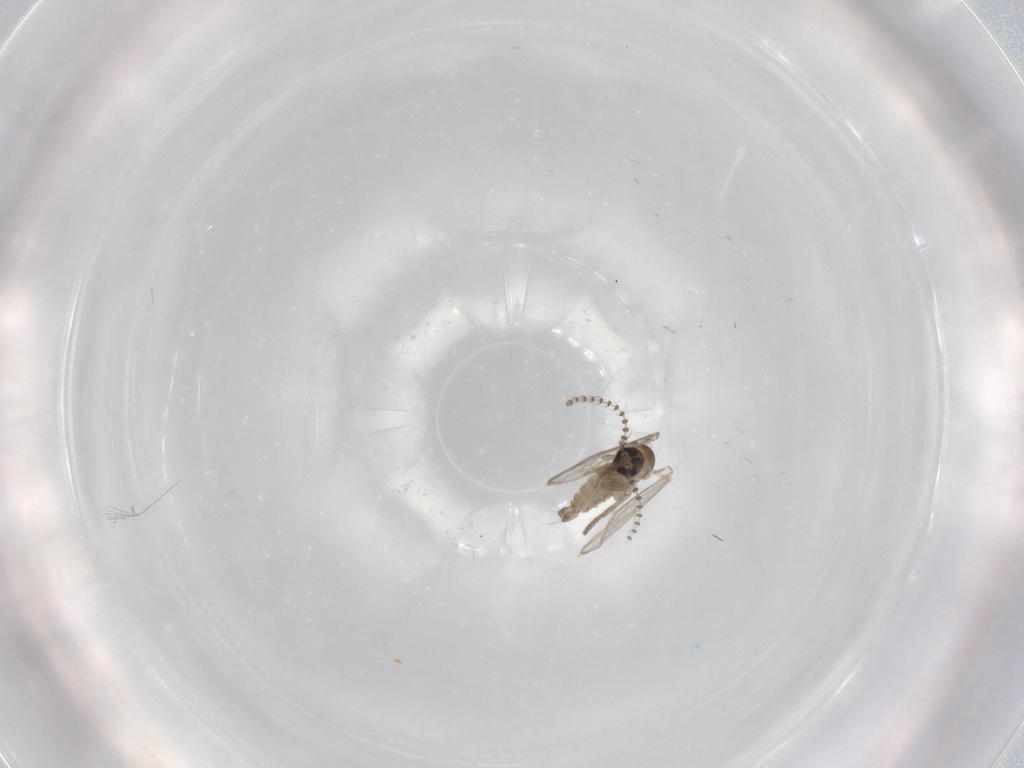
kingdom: Animalia
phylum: Arthropoda
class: Insecta
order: Diptera
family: Psychodidae
